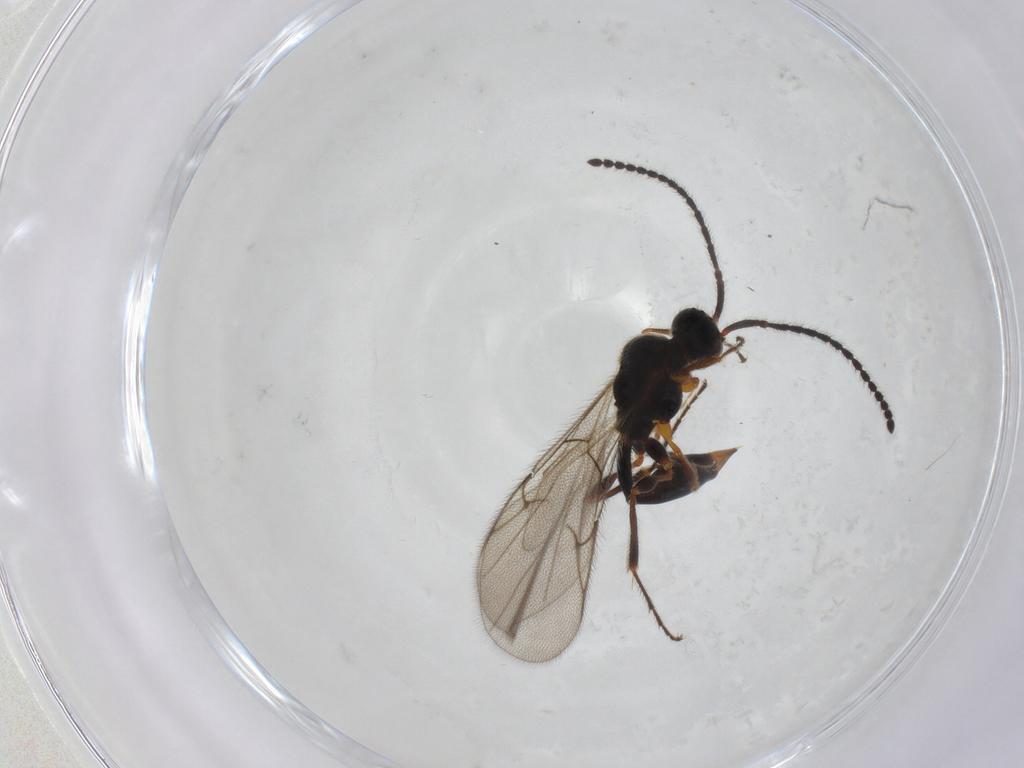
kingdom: Animalia
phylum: Arthropoda
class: Insecta
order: Hymenoptera
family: Diapriidae
